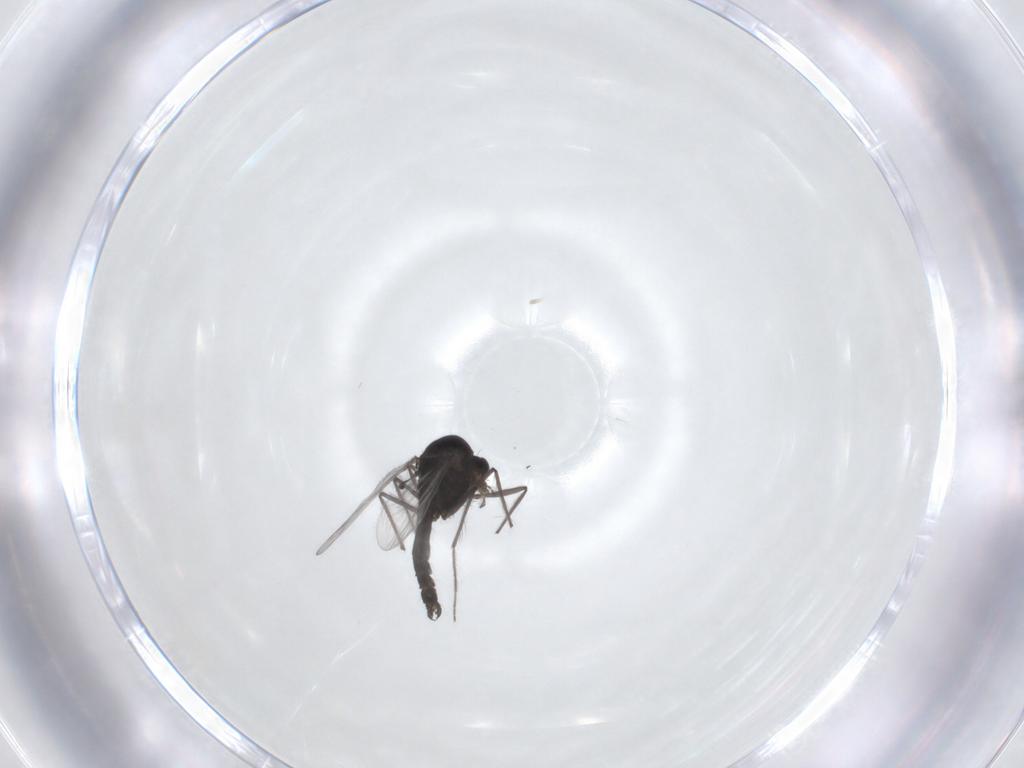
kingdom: Animalia
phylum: Arthropoda
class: Insecta
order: Diptera
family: Chironomidae
